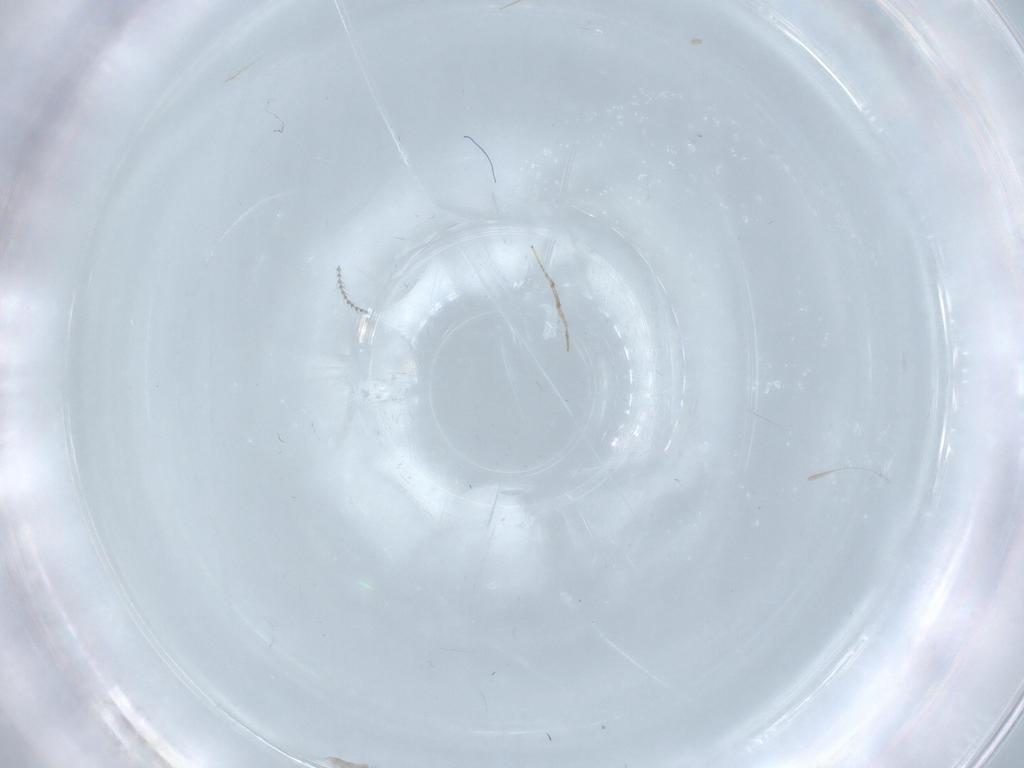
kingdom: Animalia
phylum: Arthropoda
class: Insecta
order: Diptera
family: Chironomidae
